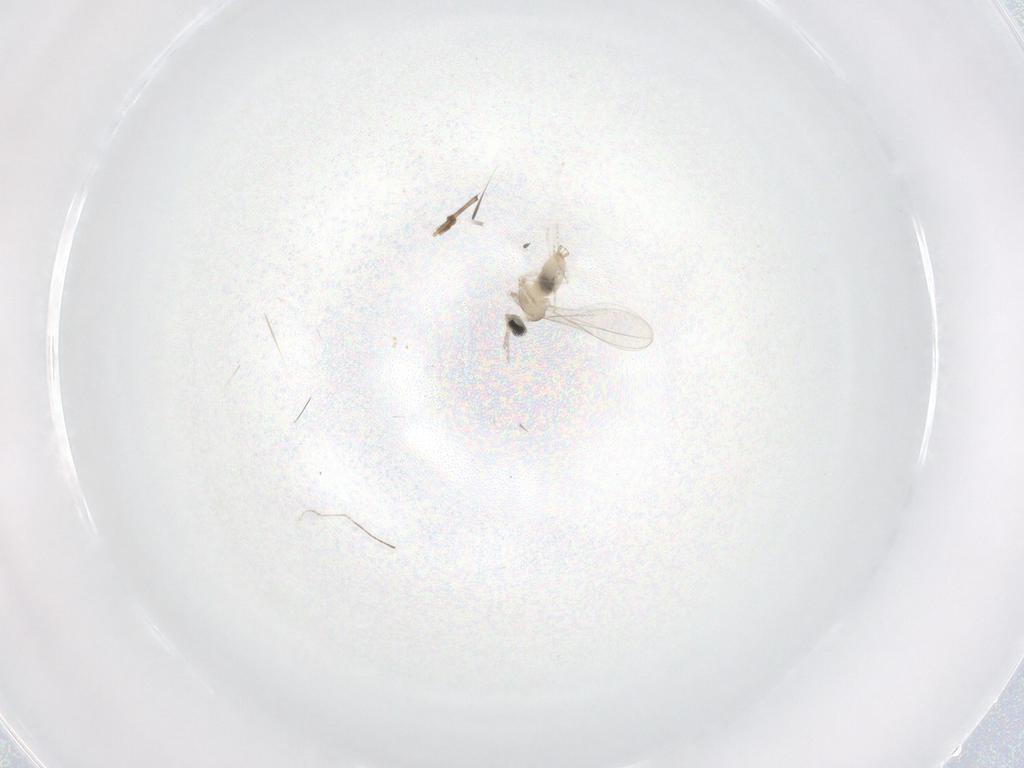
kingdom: Animalia
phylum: Arthropoda
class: Insecta
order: Diptera
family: Cecidomyiidae
